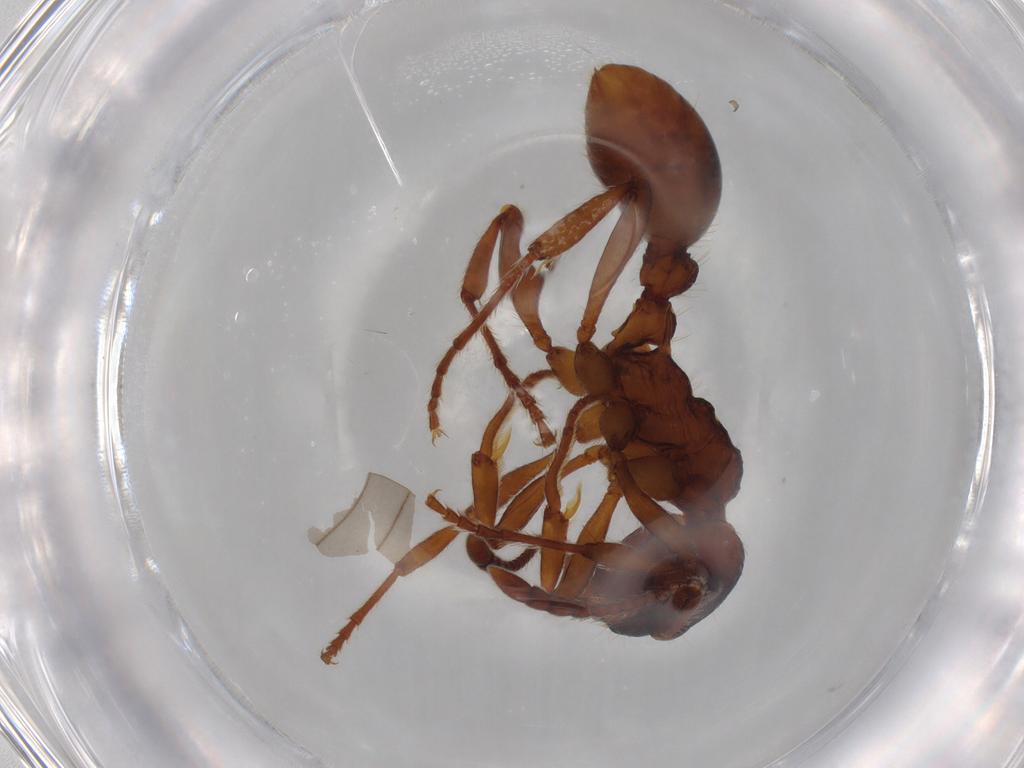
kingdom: Animalia
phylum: Arthropoda
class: Insecta
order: Hymenoptera
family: Formicidae
